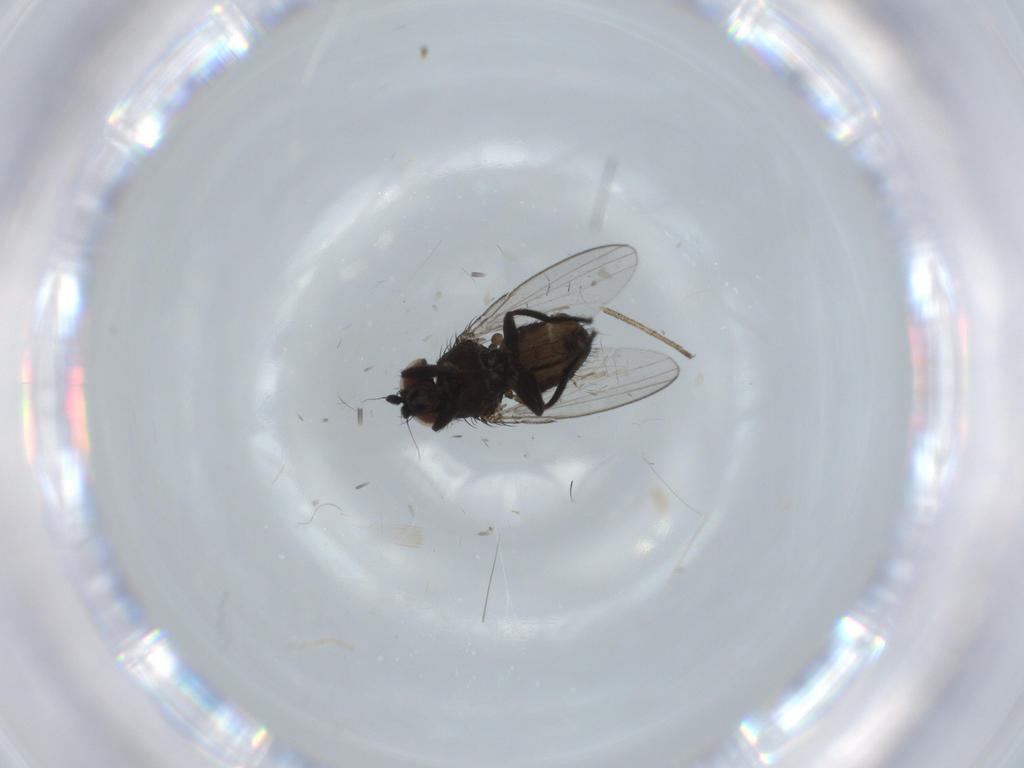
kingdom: Animalia
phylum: Arthropoda
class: Insecta
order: Diptera
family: Milichiidae
